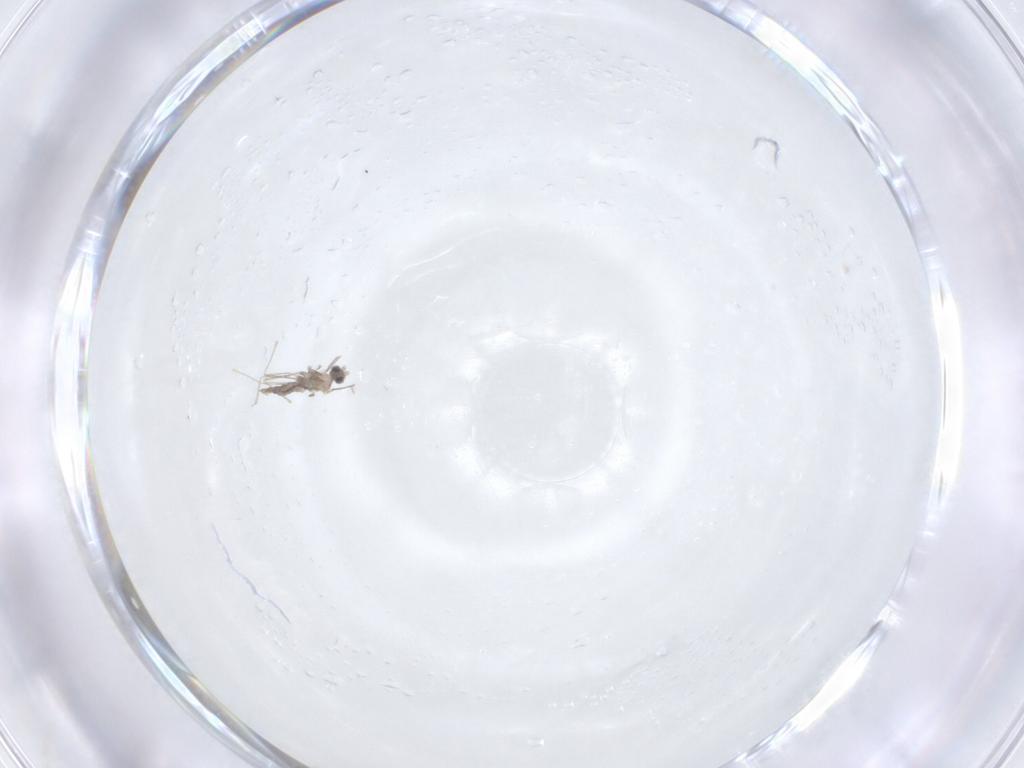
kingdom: Animalia
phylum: Arthropoda
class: Insecta
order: Diptera
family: Cecidomyiidae
